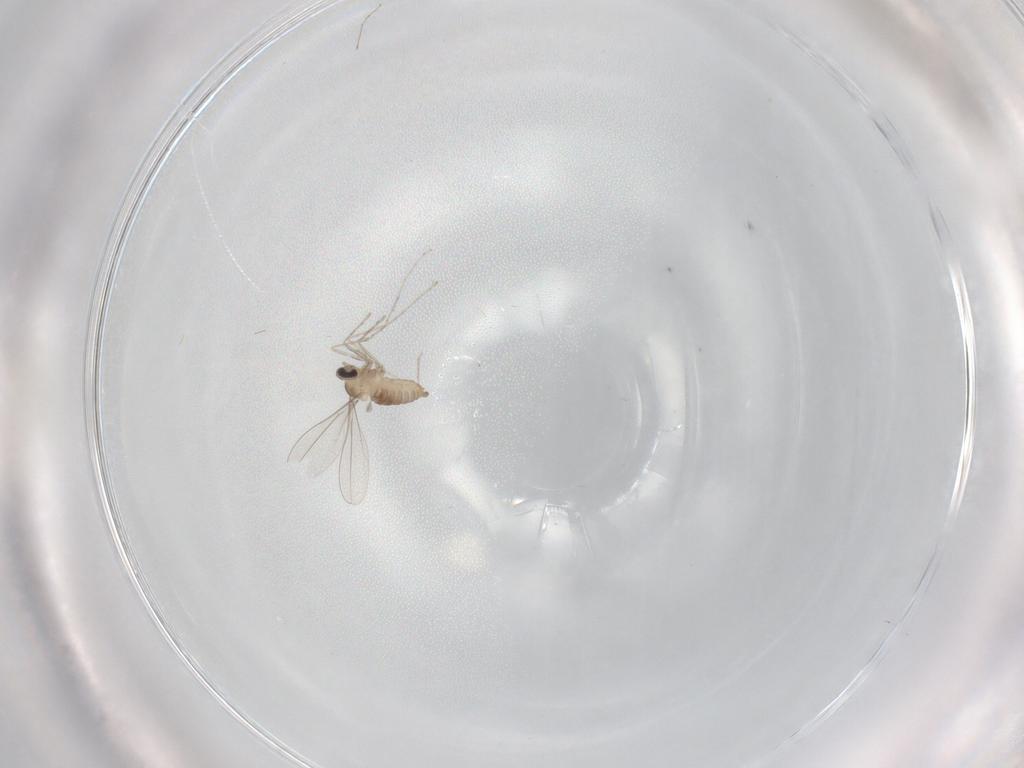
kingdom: Animalia
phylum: Arthropoda
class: Insecta
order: Diptera
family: Cecidomyiidae
